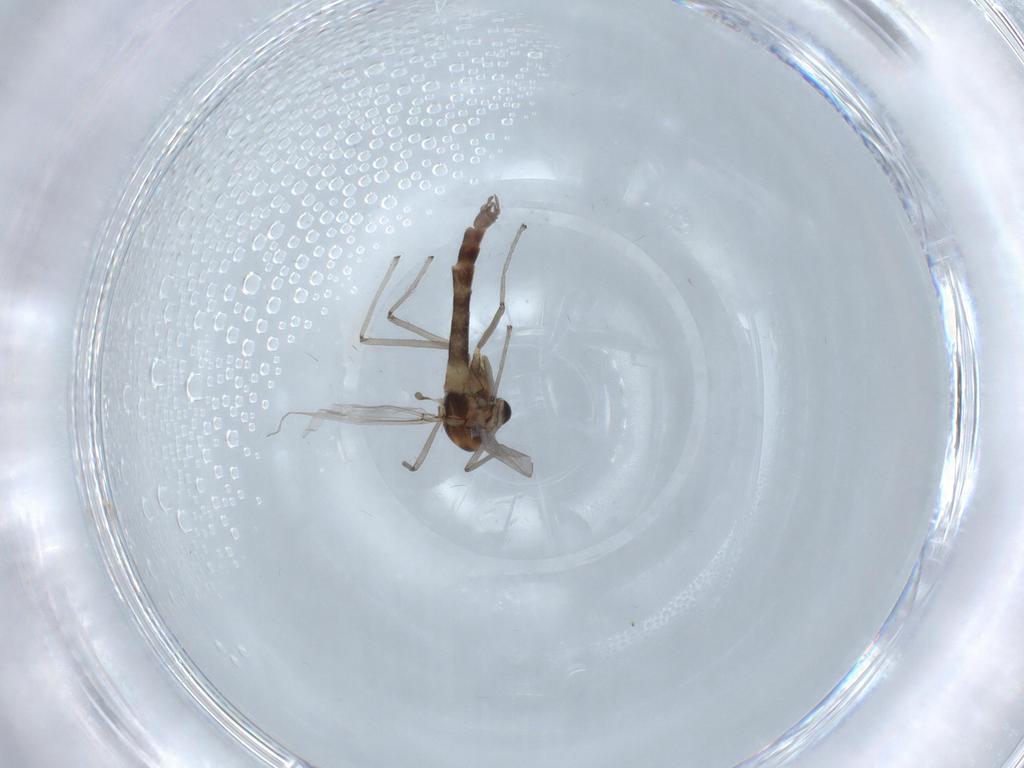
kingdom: Animalia
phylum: Arthropoda
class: Insecta
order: Diptera
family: Chironomidae
